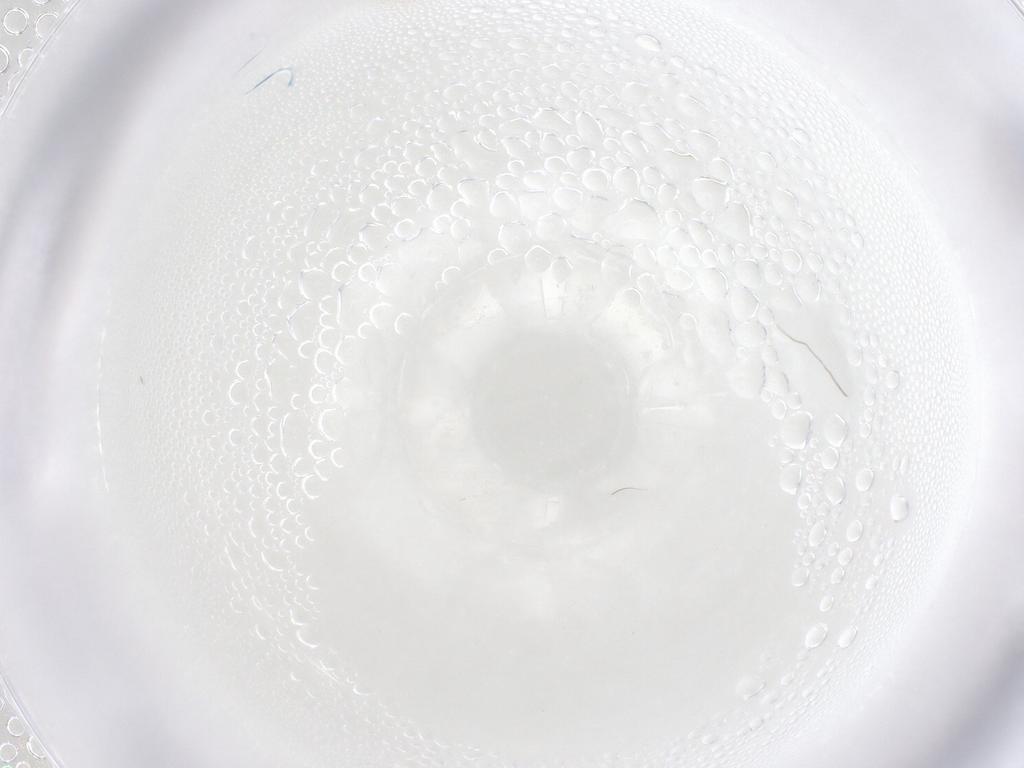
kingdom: Animalia
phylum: Arthropoda
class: Insecta
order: Hymenoptera
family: Mymaridae
